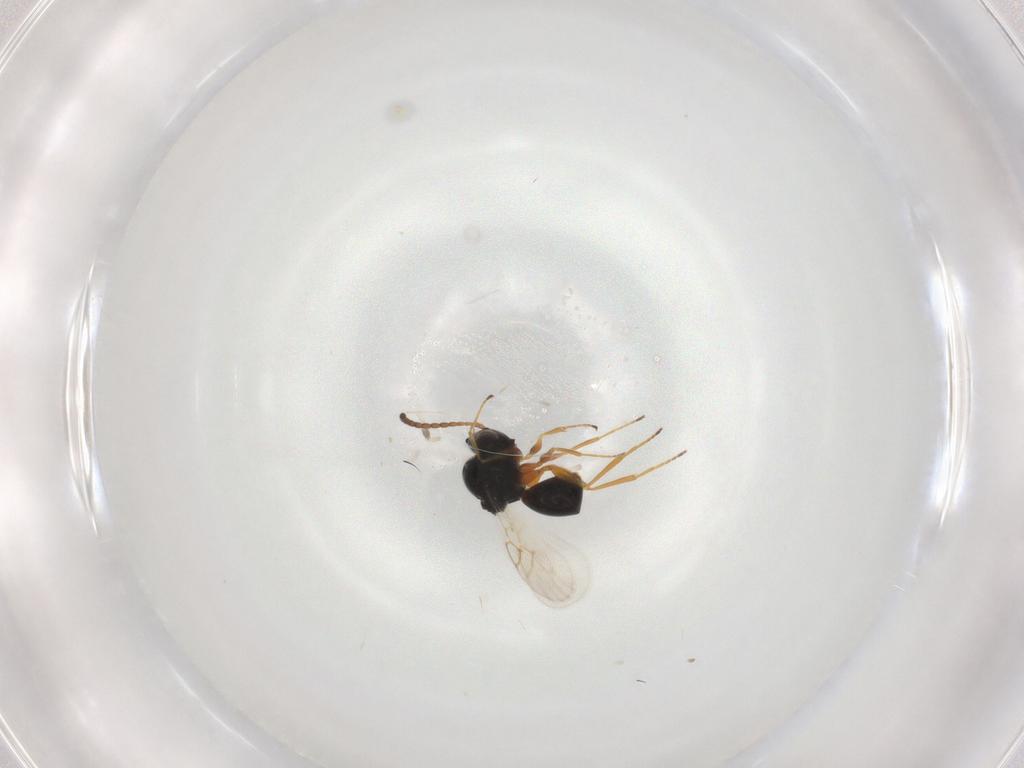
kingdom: Animalia
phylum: Arthropoda
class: Insecta
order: Hymenoptera
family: Figitidae
